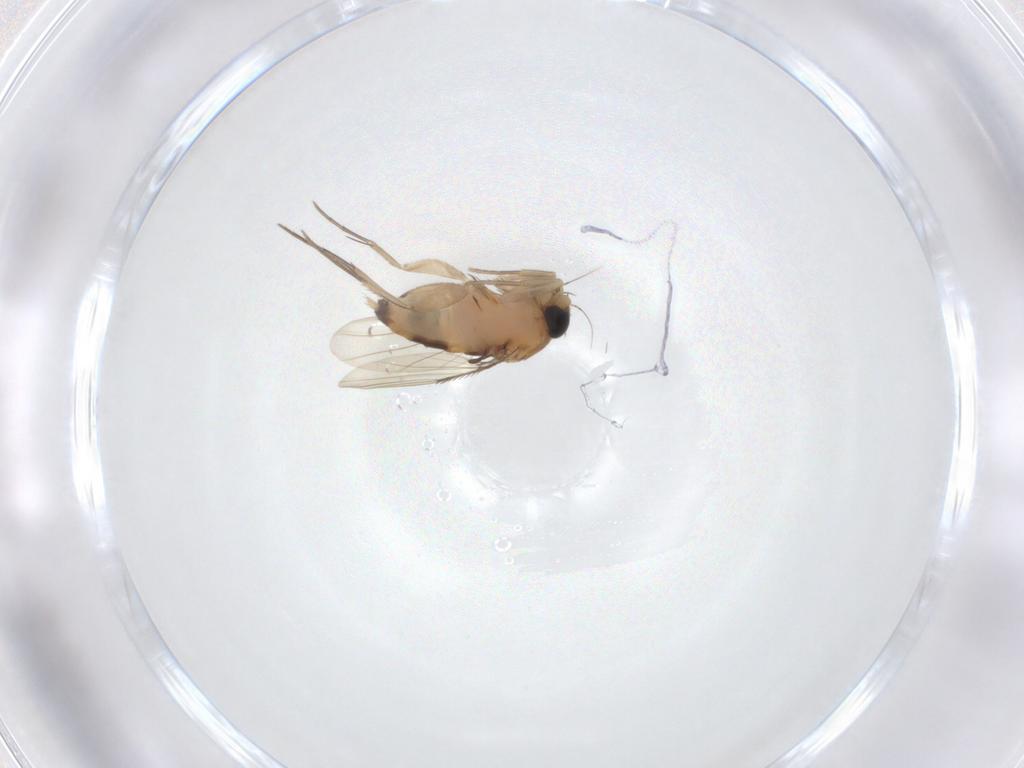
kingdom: Animalia
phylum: Arthropoda
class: Insecta
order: Diptera
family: Phoridae
